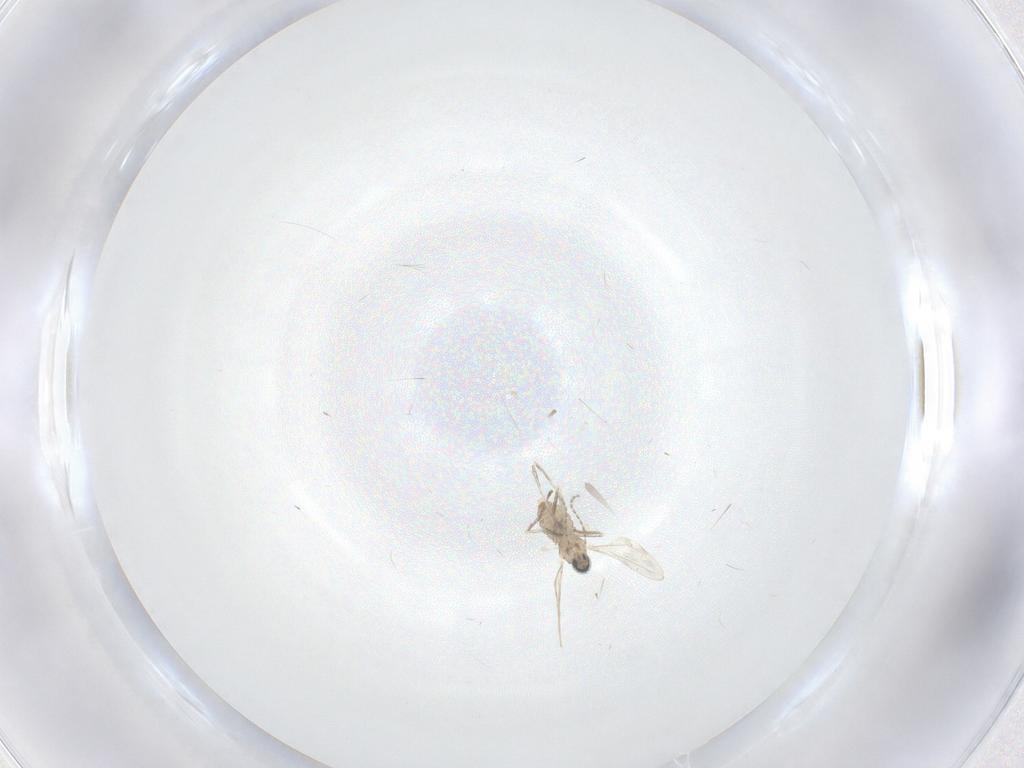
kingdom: Animalia
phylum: Arthropoda
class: Insecta
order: Diptera
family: Cecidomyiidae
